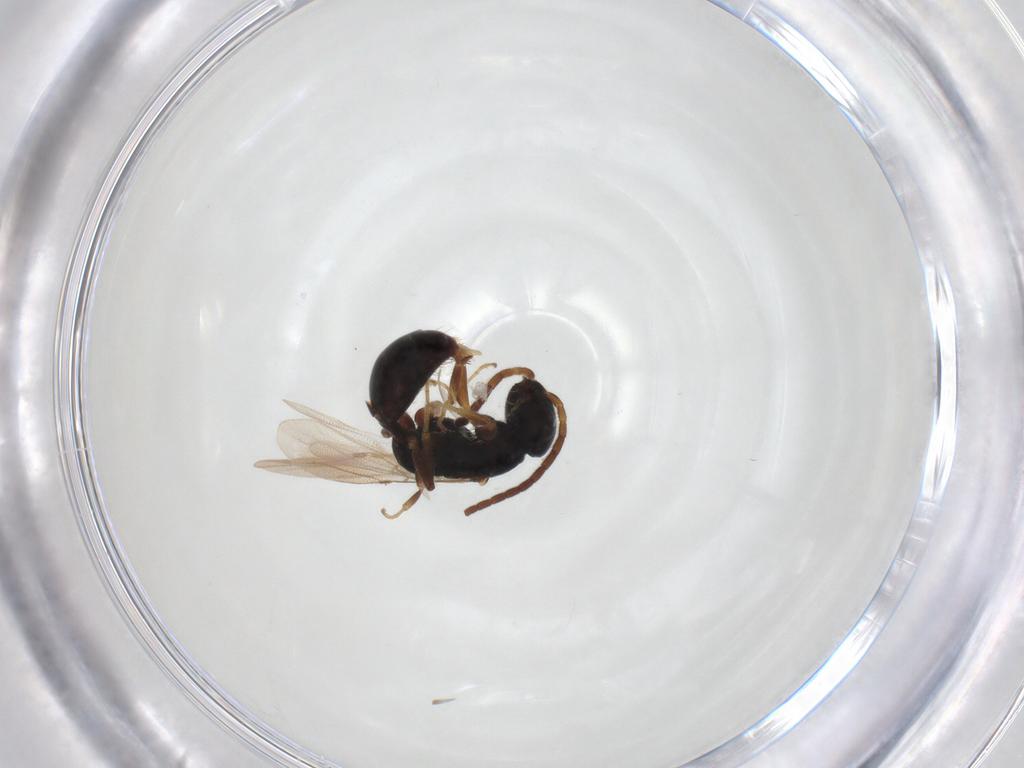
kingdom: Animalia
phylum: Arthropoda
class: Insecta
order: Hymenoptera
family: Bethylidae
